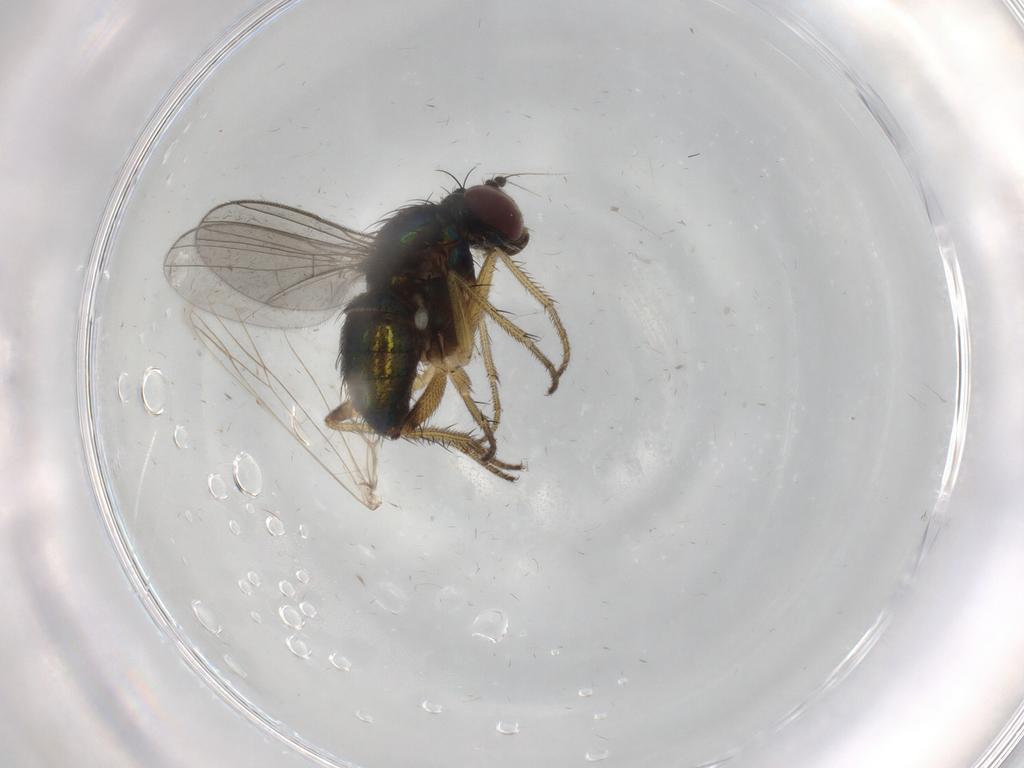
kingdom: Animalia
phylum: Arthropoda
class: Insecta
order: Diptera
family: Dolichopodidae
